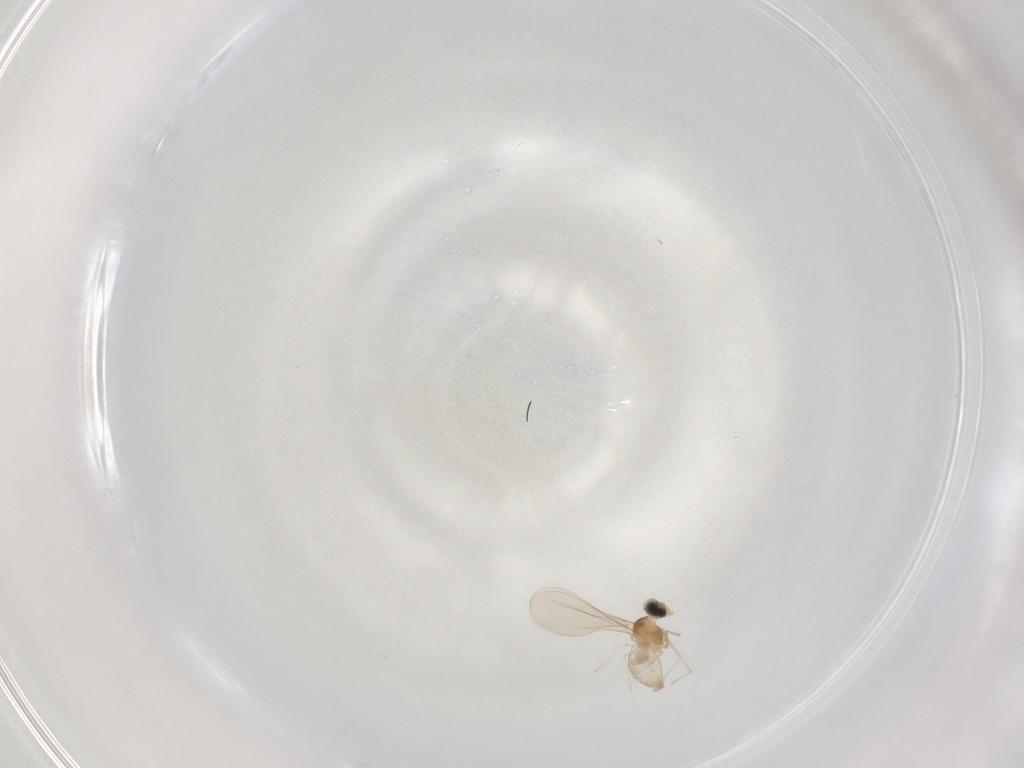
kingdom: Animalia
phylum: Arthropoda
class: Insecta
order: Diptera
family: Cecidomyiidae
